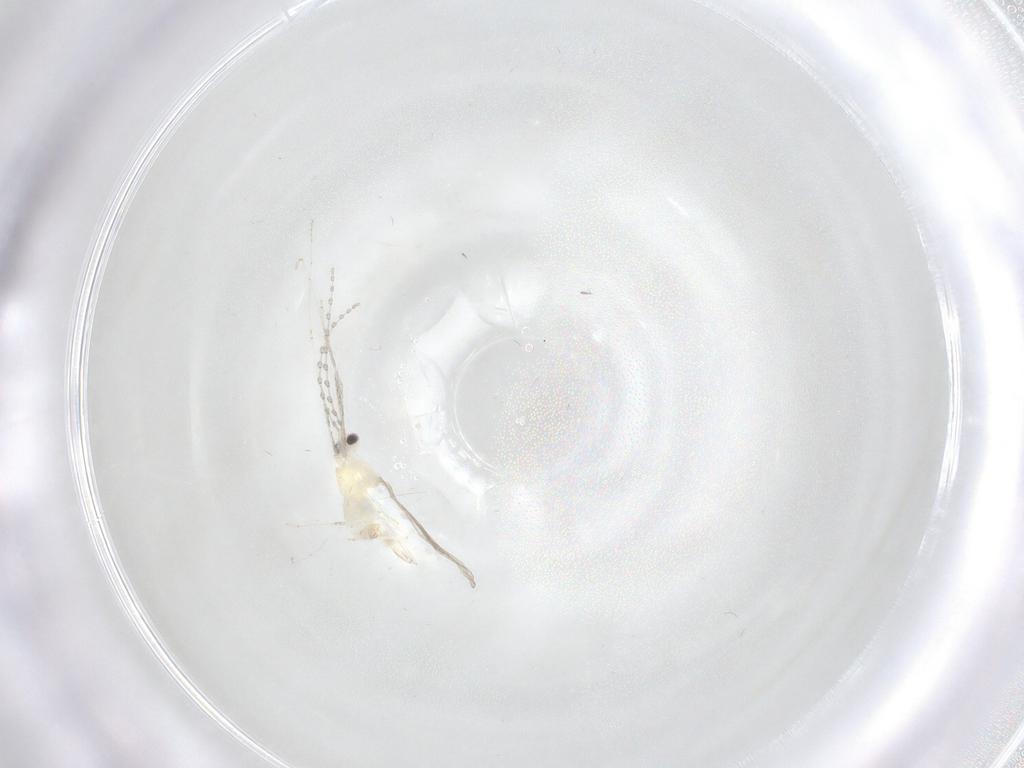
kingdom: Animalia
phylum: Arthropoda
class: Insecta
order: Diptera
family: Cecidomyiidae
